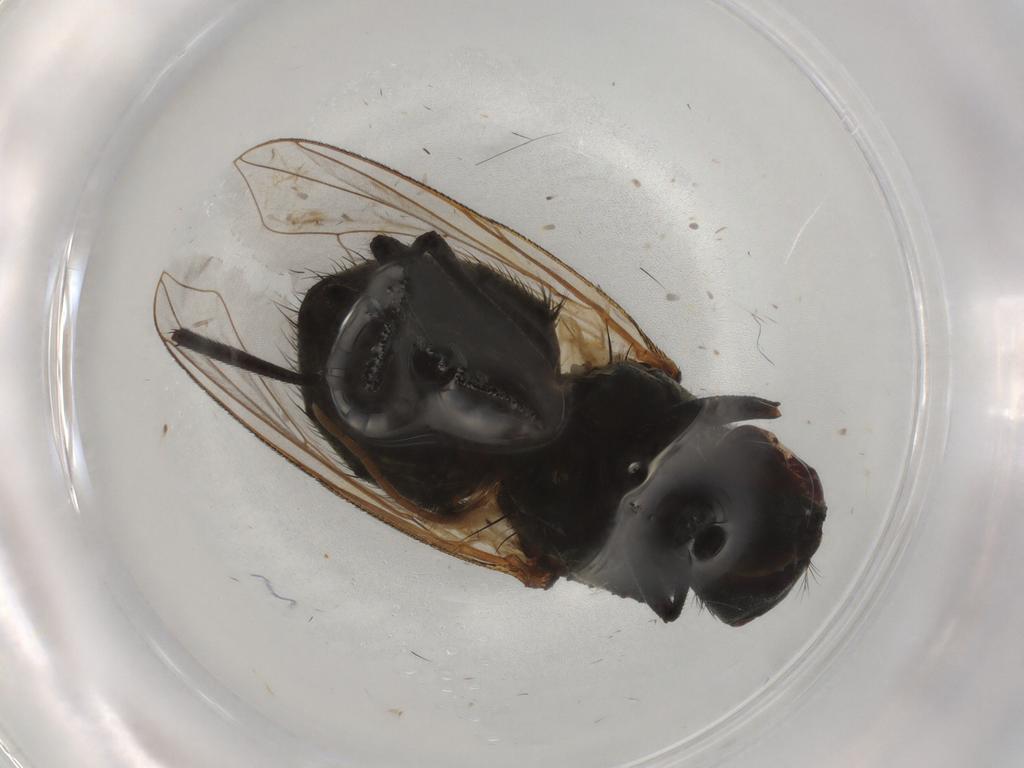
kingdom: Animalia
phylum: Arthropoda
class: Insecta
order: Diptera
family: Muscidae
